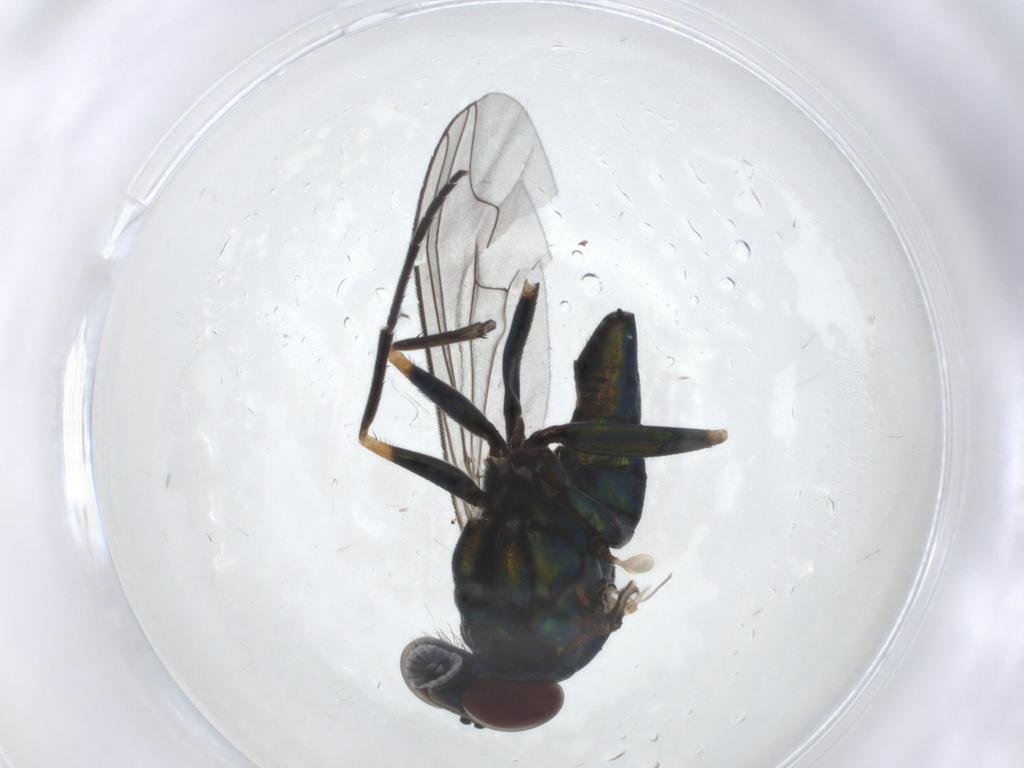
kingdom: Animalia
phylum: Arthropoda
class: Insecta
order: Diptera
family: Dolichopodidae
